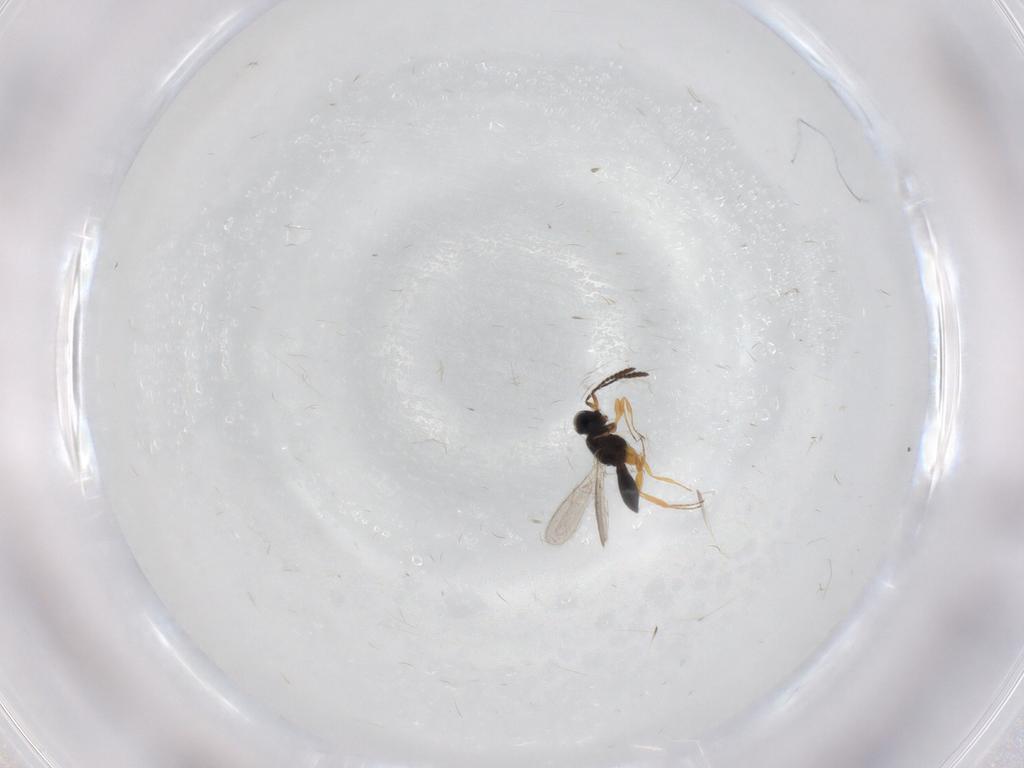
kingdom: Animalia
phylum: Arthropoda
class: Insecta
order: Hymenoptera
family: Scelionidae
